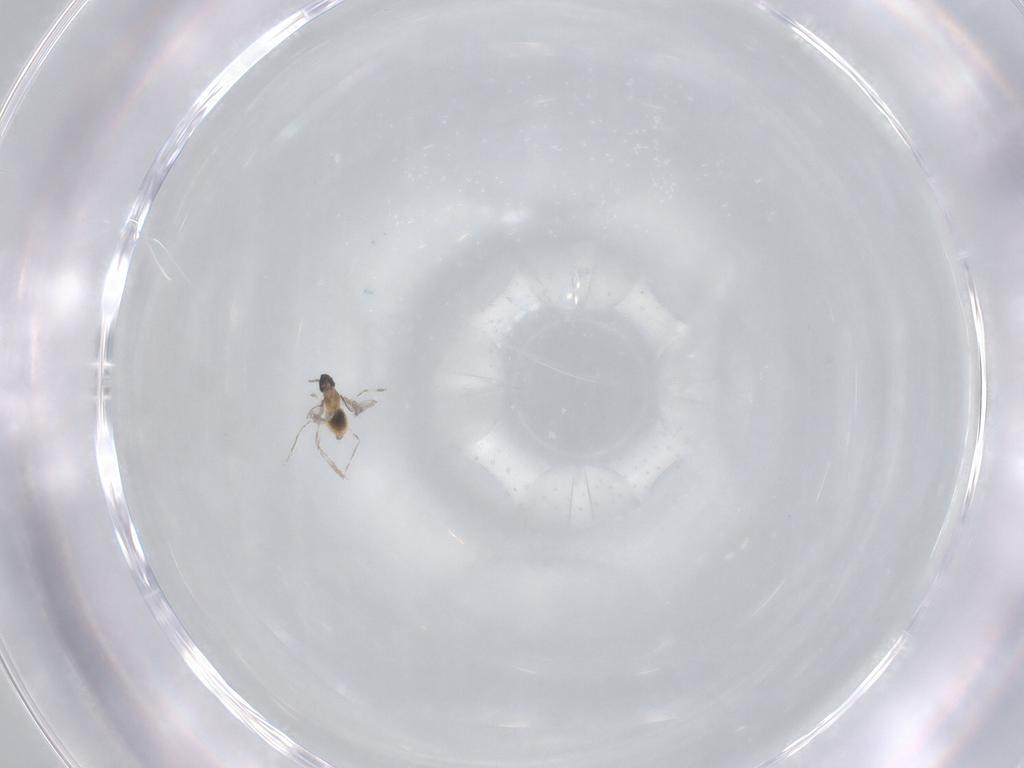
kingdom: Animalia
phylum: Arthropoda
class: Insecta
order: Diptera
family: Cecidomyiidae
